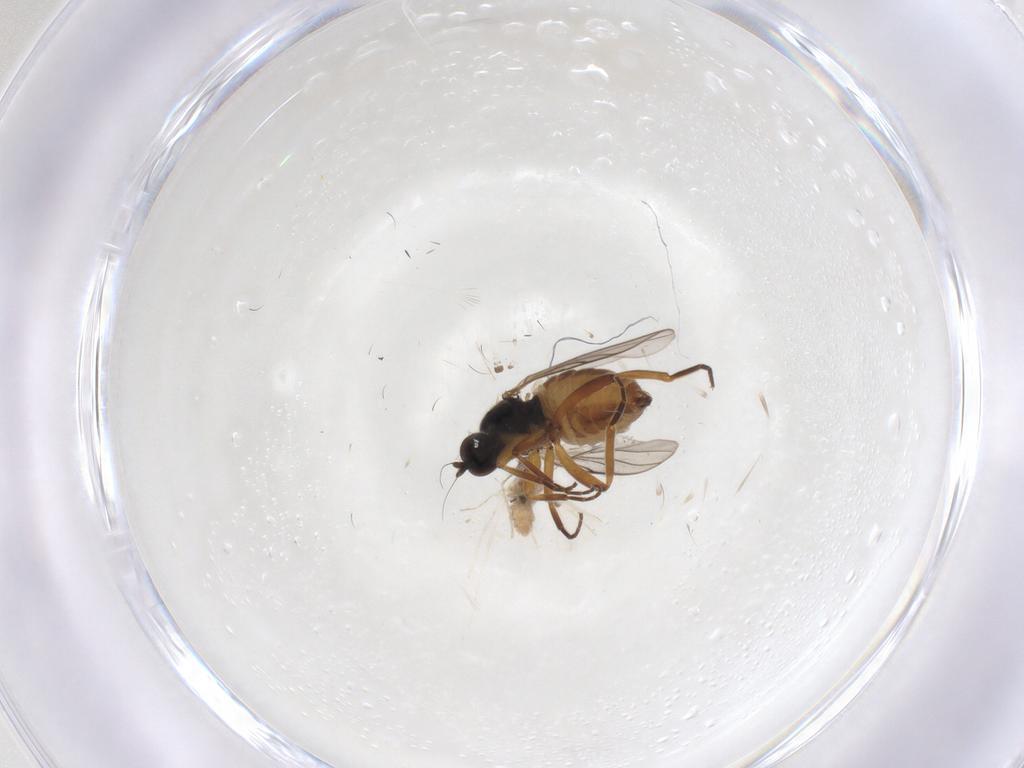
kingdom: Animalia
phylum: Arthropoda
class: Insecta
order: Diptera
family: Hybotidae
